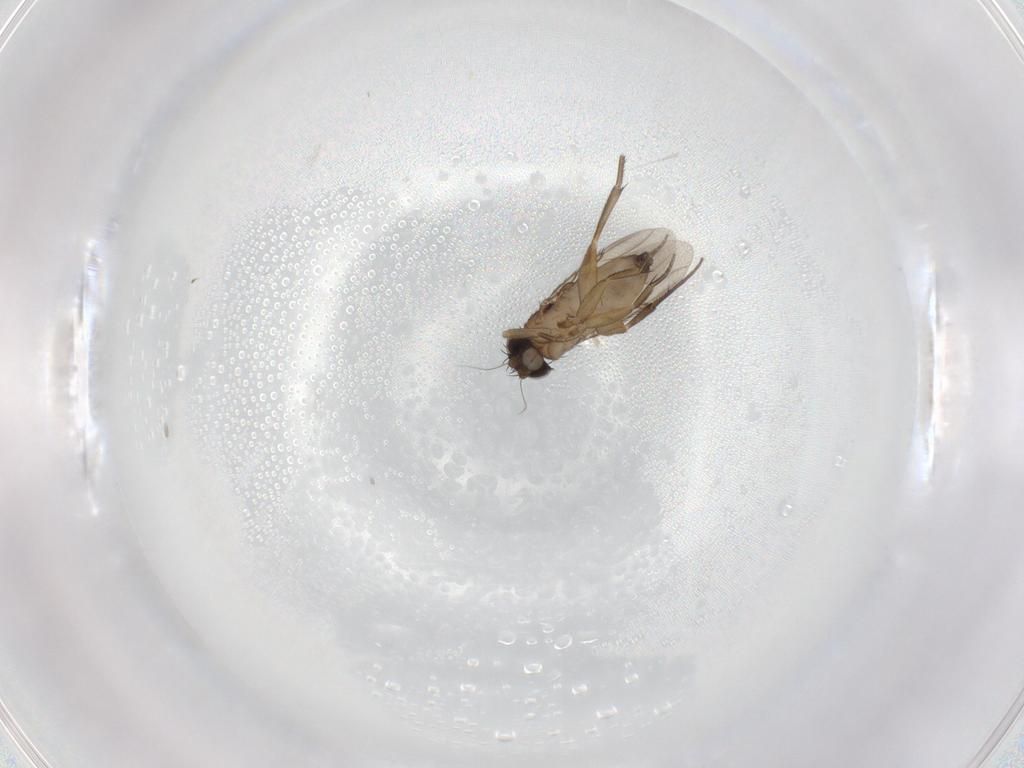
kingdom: Animalia
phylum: Arthropoda
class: Insecta
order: Diptera
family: Phoridae
